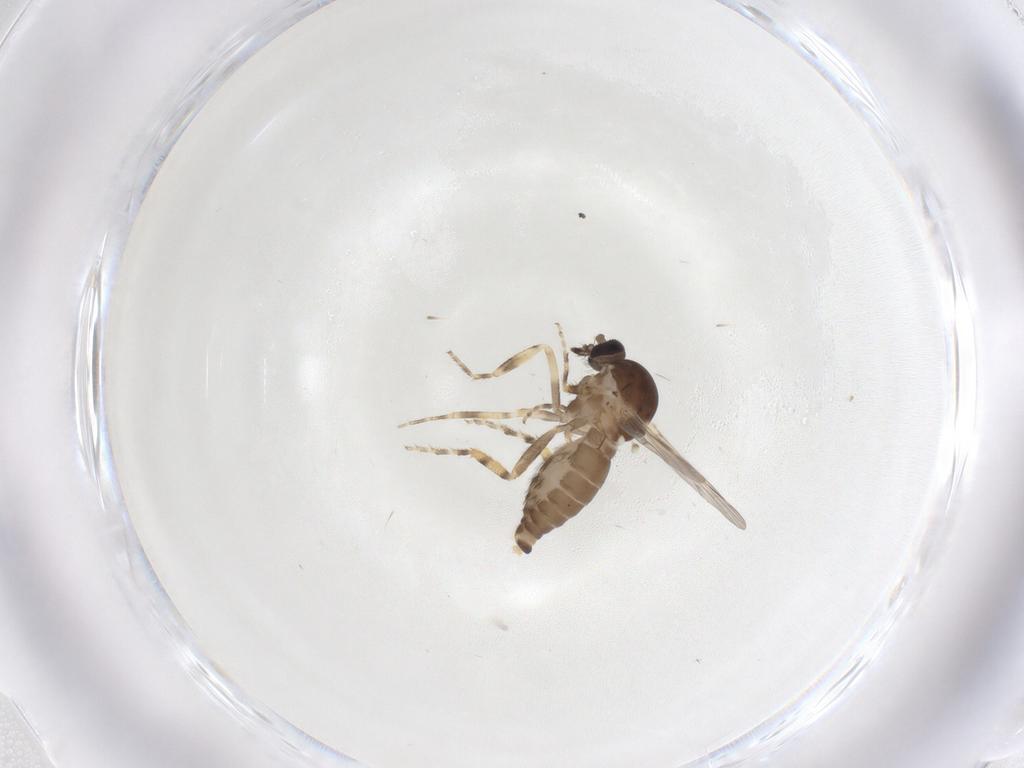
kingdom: Animalia
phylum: Arthropoda
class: Insecta
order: Diptera
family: Ceratopogonidae
